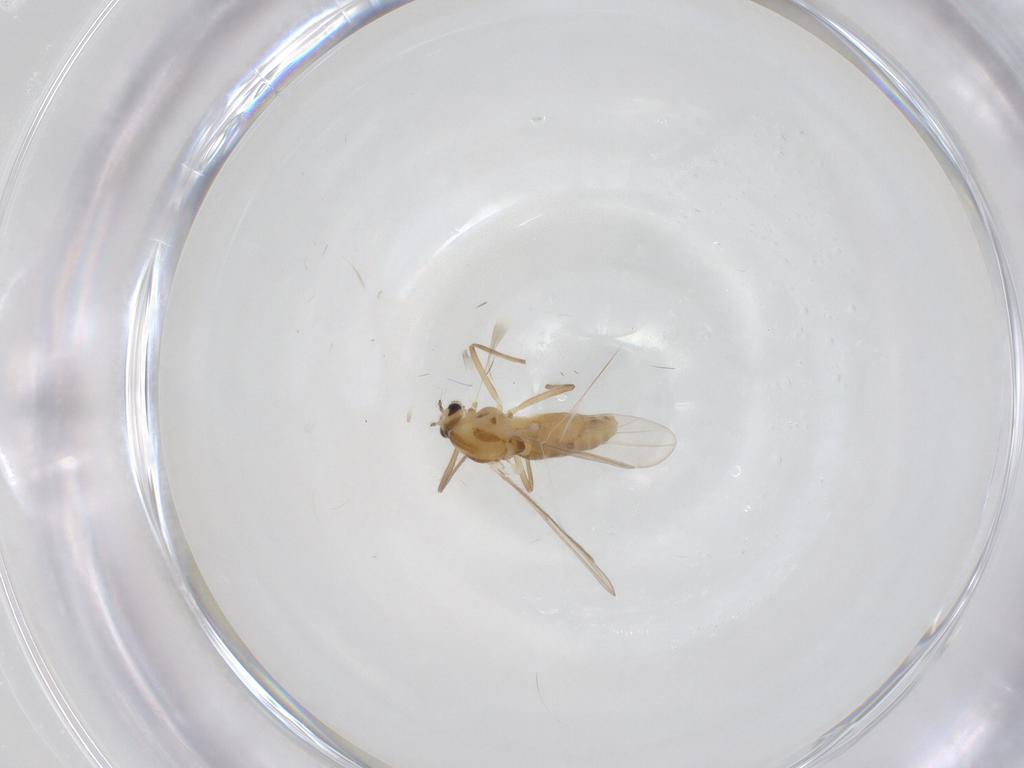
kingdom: Animalia
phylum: Arthropoda
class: Insecta
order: Diptera
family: Chironomidae
